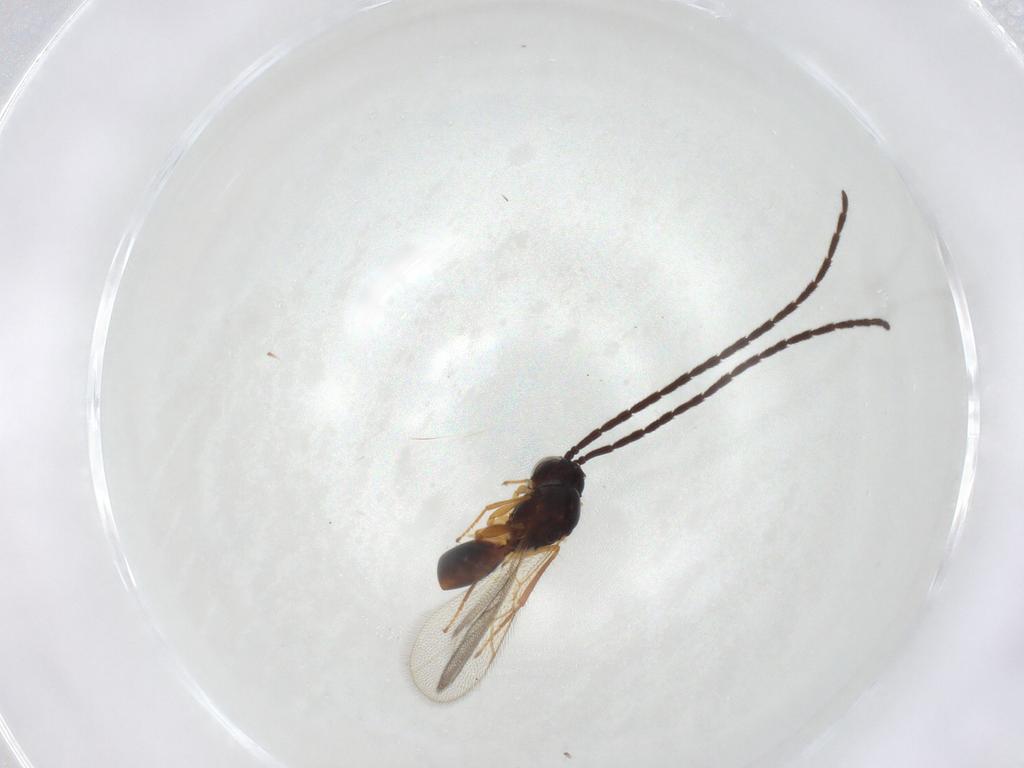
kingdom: Animalia
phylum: Arthropoda
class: Insecta
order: Hymenoptera
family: Figitidae
